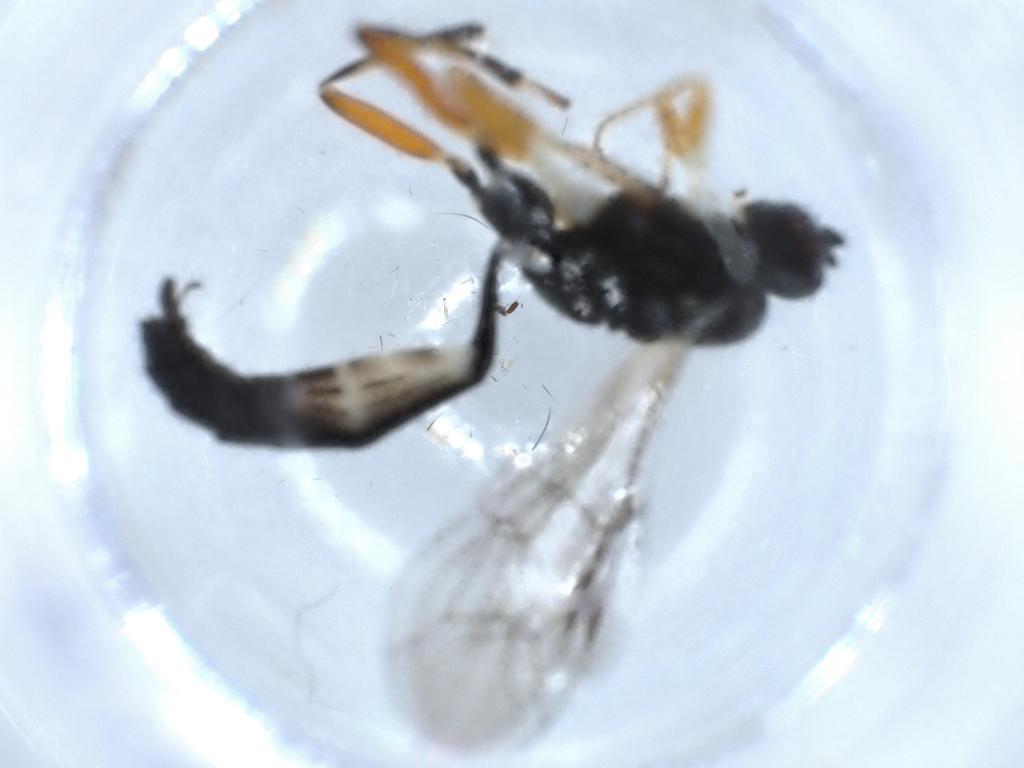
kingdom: Animalia
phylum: Arthropoda
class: Insecta
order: Hymenoptera
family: Ichneumonidae
